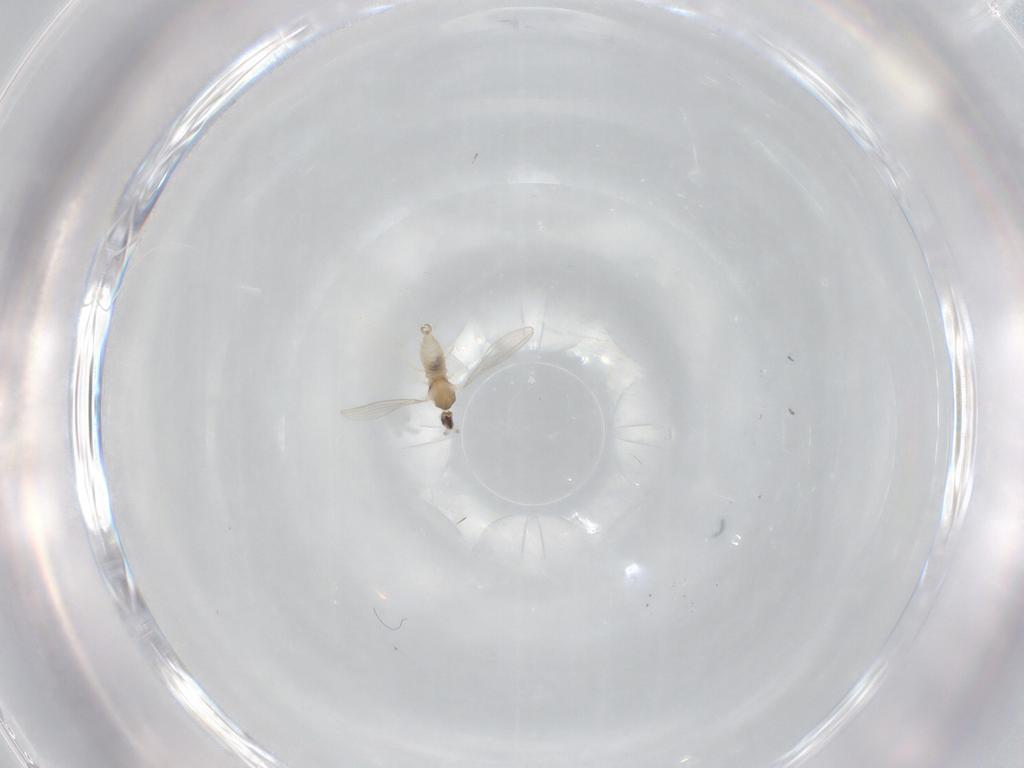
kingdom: Animalia
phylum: Arthropoda
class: Insecta
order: Diptera
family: Cecidomyiidae
